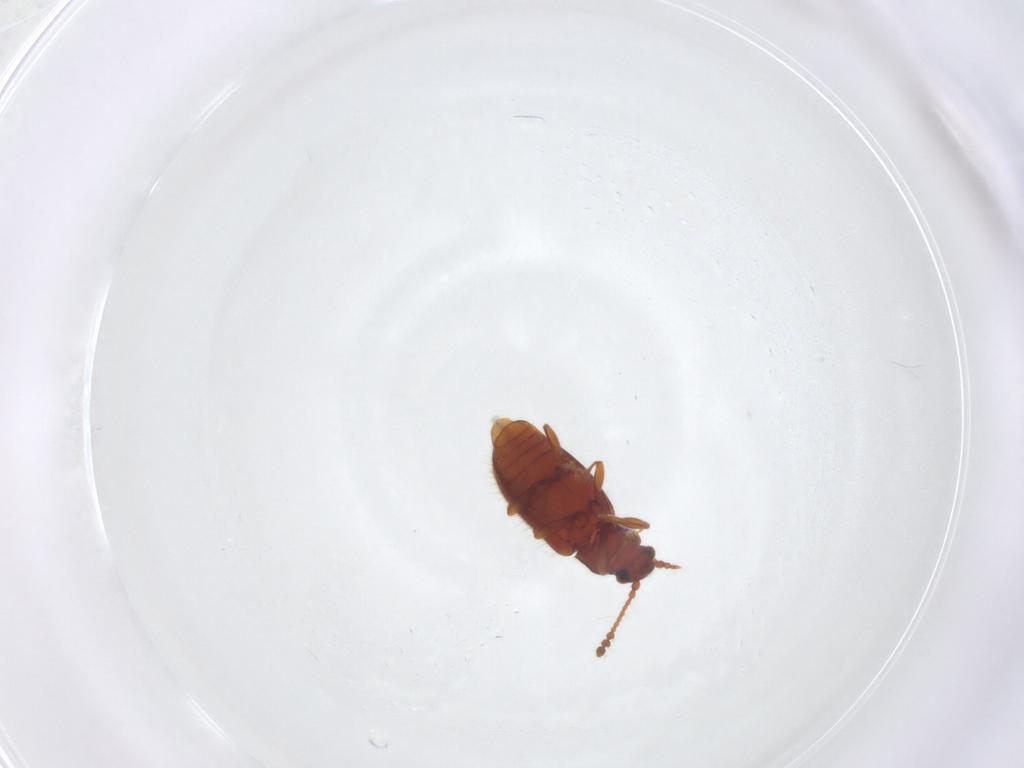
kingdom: Animalia
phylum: Arthropoda
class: Insecta
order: Coleoptera
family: Cryptophagidae
